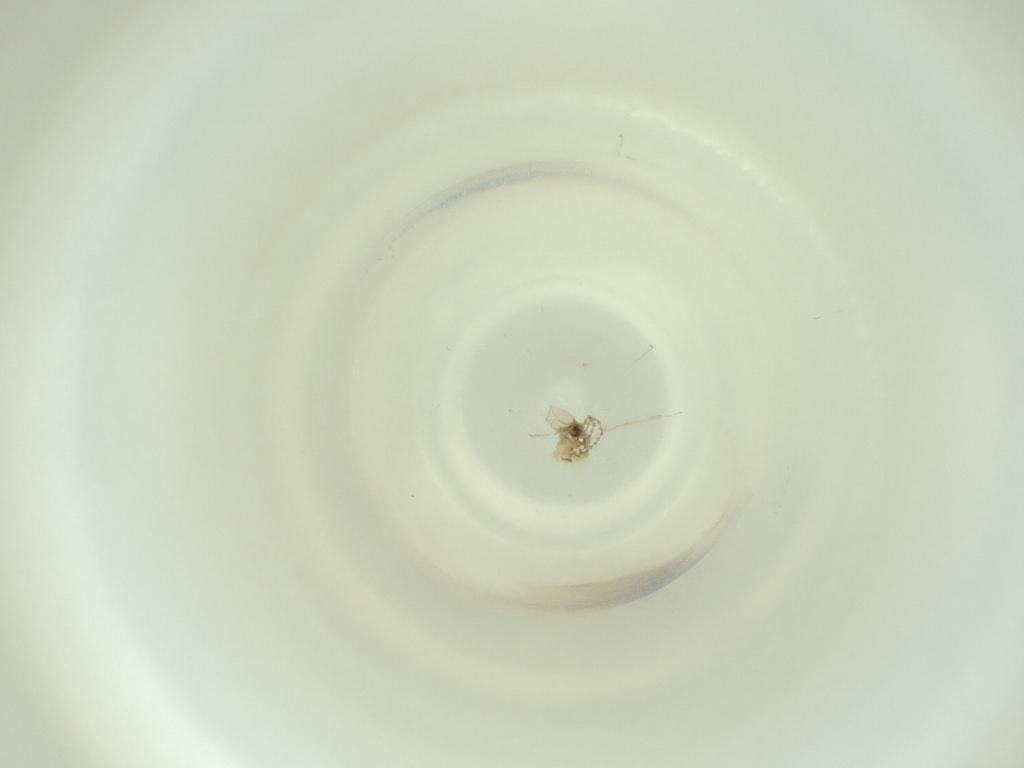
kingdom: Animalia
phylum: Arthropoda
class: Insecta
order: Diptera
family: Cecidomyiidae
